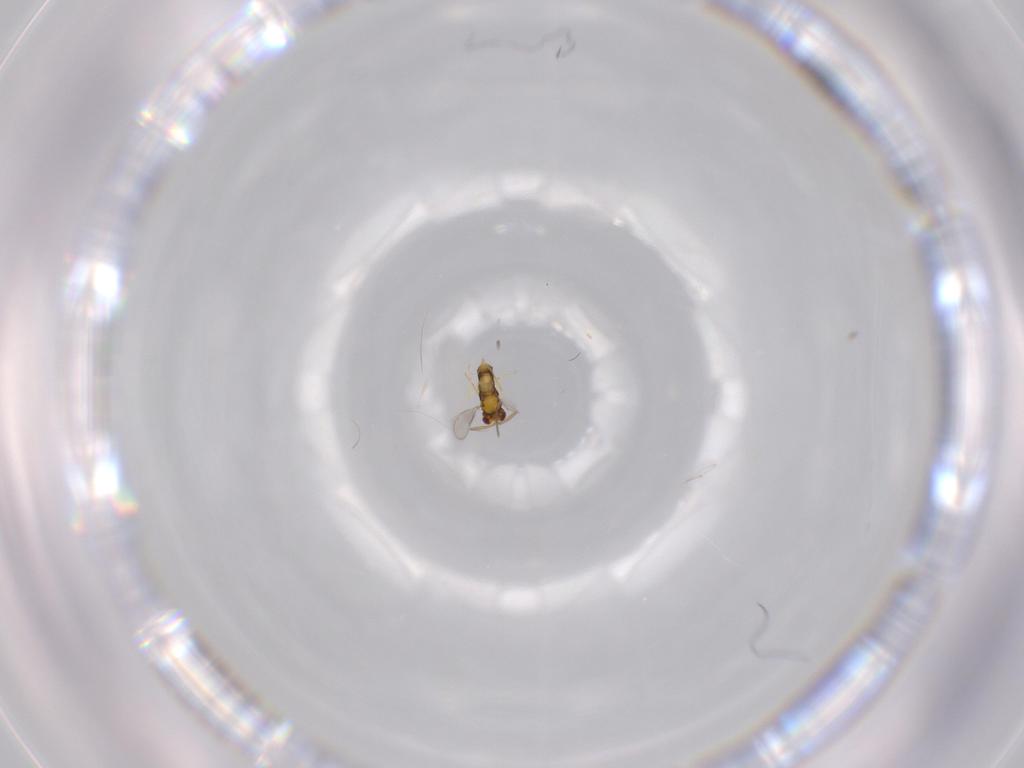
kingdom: Animalia
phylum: Arthropoda
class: Insecta
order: Hymenoptera
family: Aphelinidae
